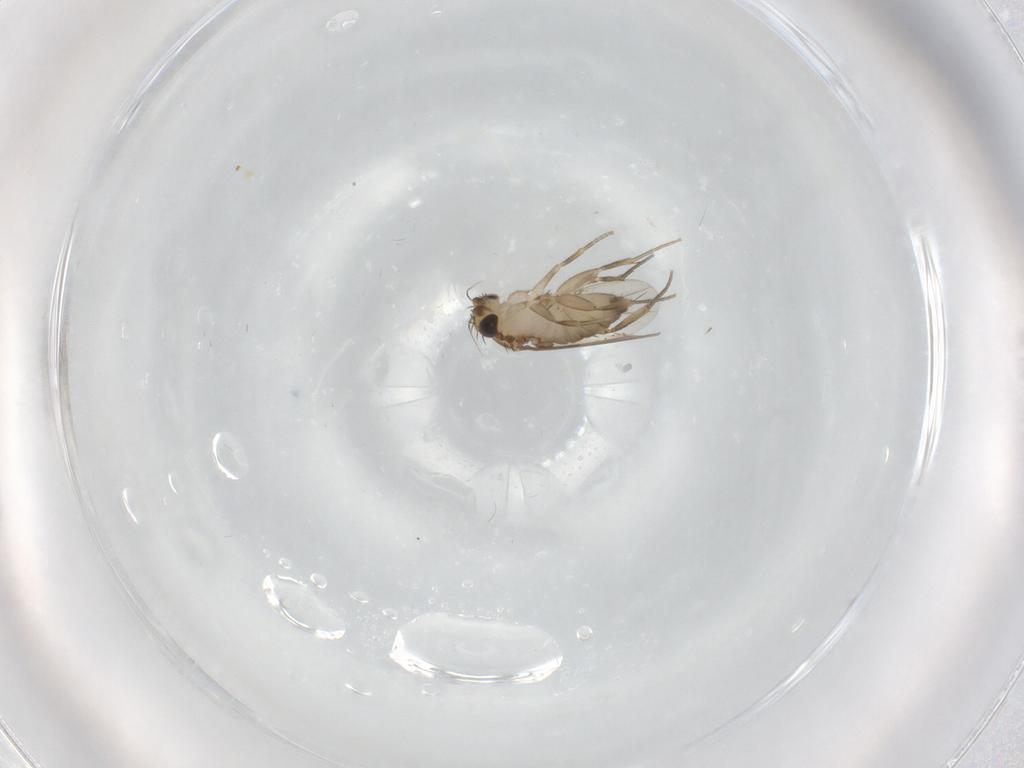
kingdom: Animalia
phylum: Arthropoda
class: Insecta
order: Diptera
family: Phoridae
